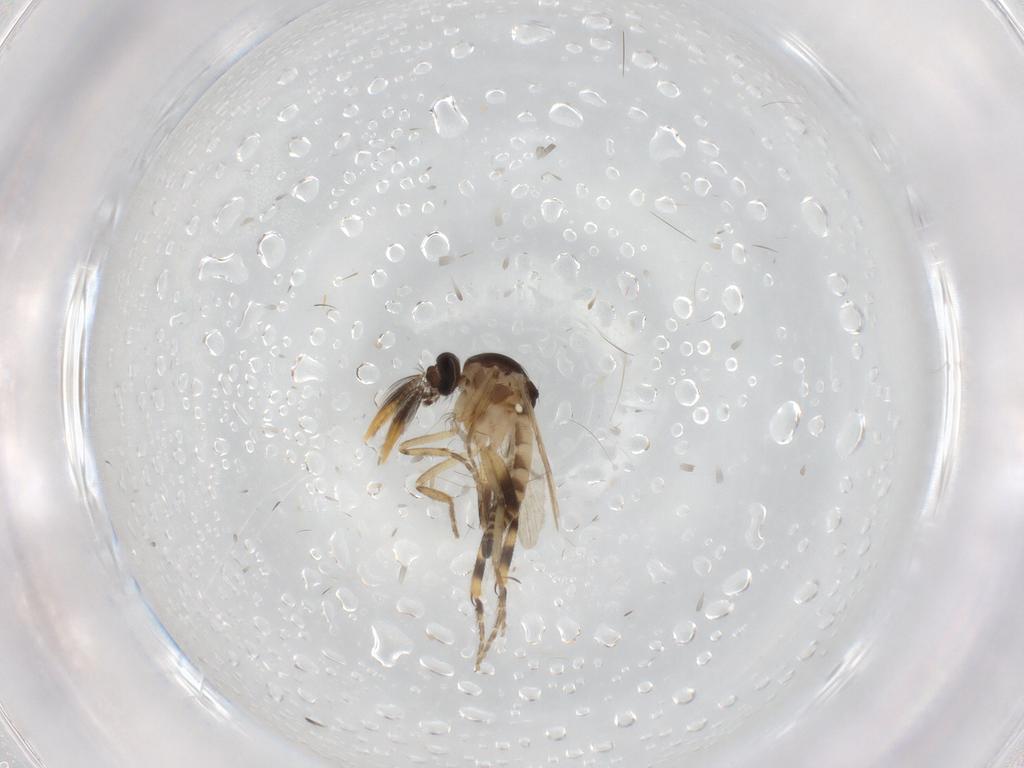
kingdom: Animalia
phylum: Arthropoda
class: Insecta
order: Diptera
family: Ceratopogonidae
